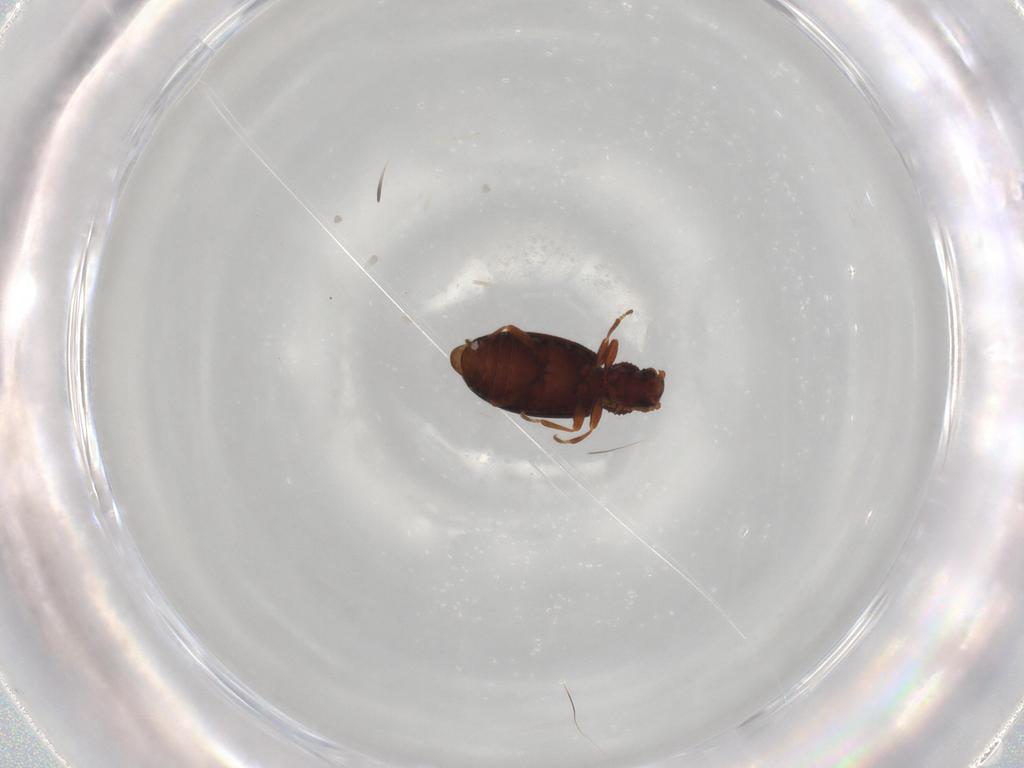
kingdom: Animalia
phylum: Arthropoda
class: Insecta
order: Coleoptera
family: Latridiidae
